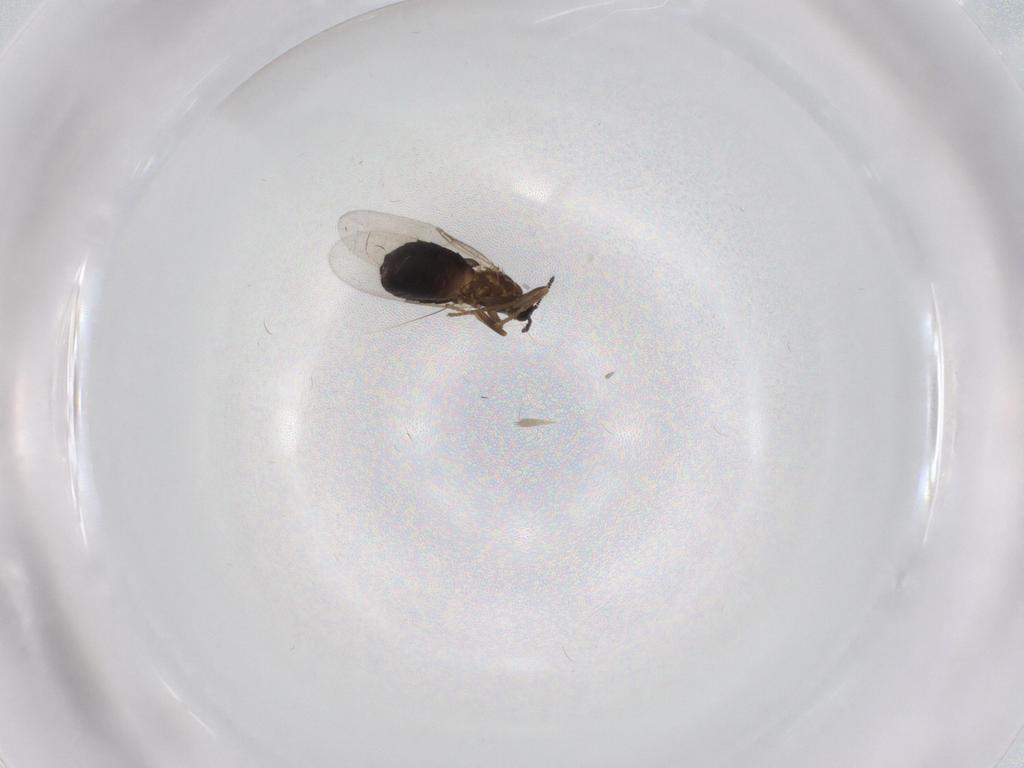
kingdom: Animalia
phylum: Arthropoda
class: Insecta
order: Diptera
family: Scatopsidae
